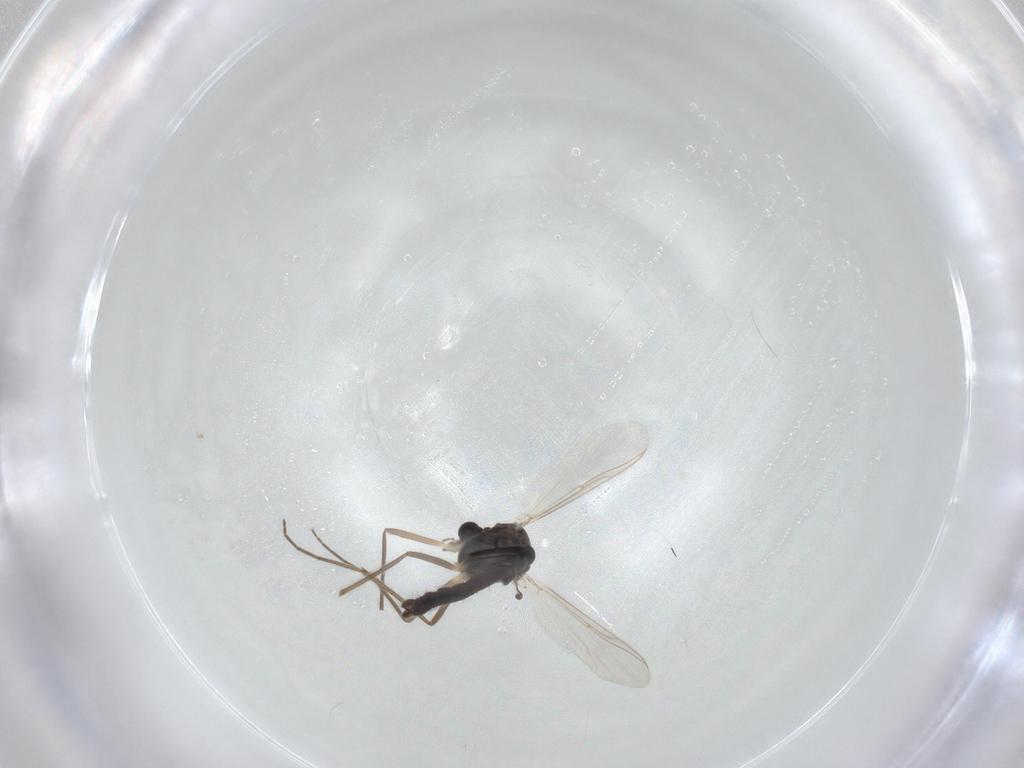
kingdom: Animalia
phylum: Arthropoda
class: Insecta
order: Diptera
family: Chironomidae
